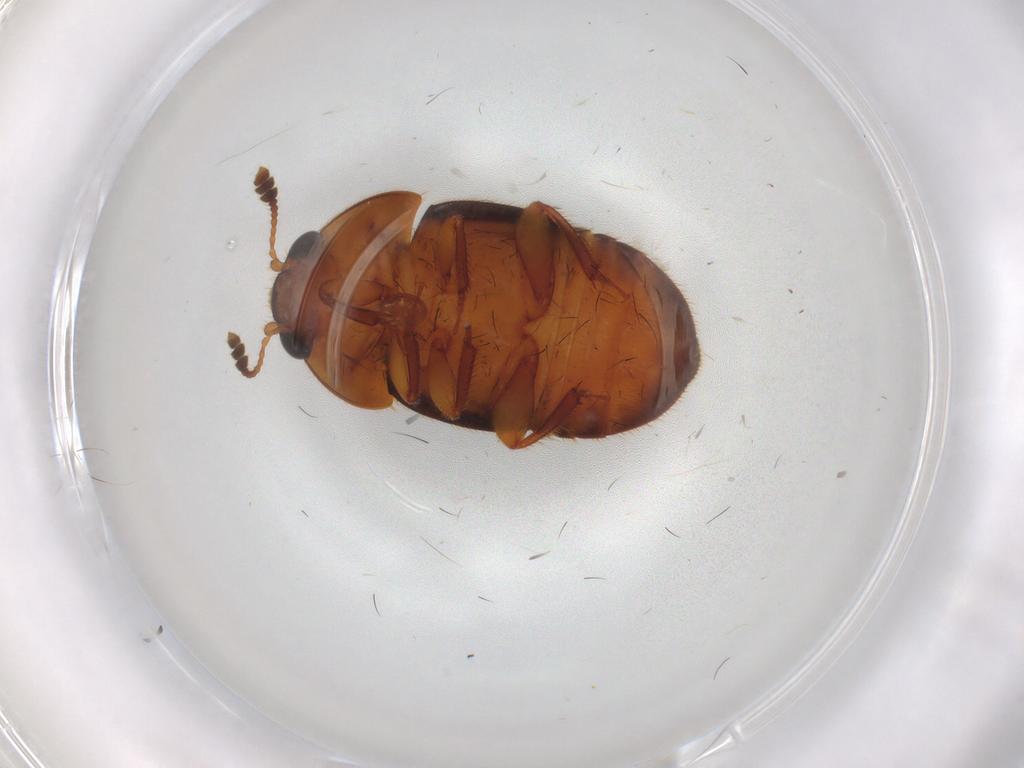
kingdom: Animalia
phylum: Arthropoda
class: Insecta
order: Coleoptera
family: Nitidulidae
